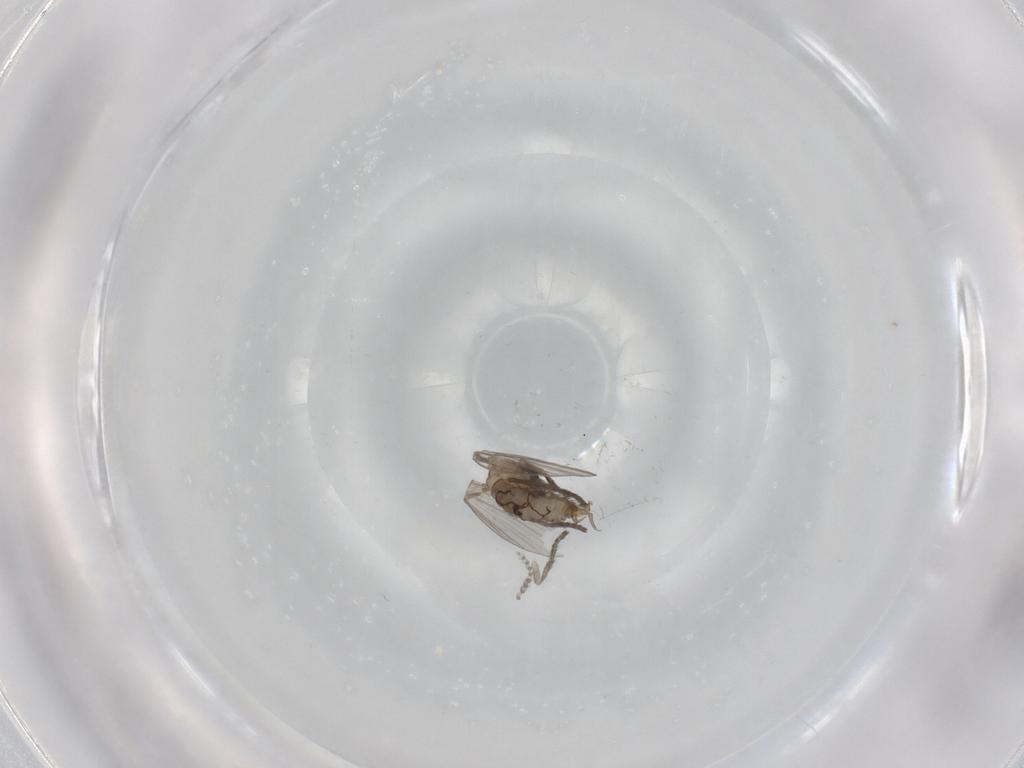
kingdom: Animalia
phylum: Arthropoda
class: Insecta
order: Diptera
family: Psychodidae
